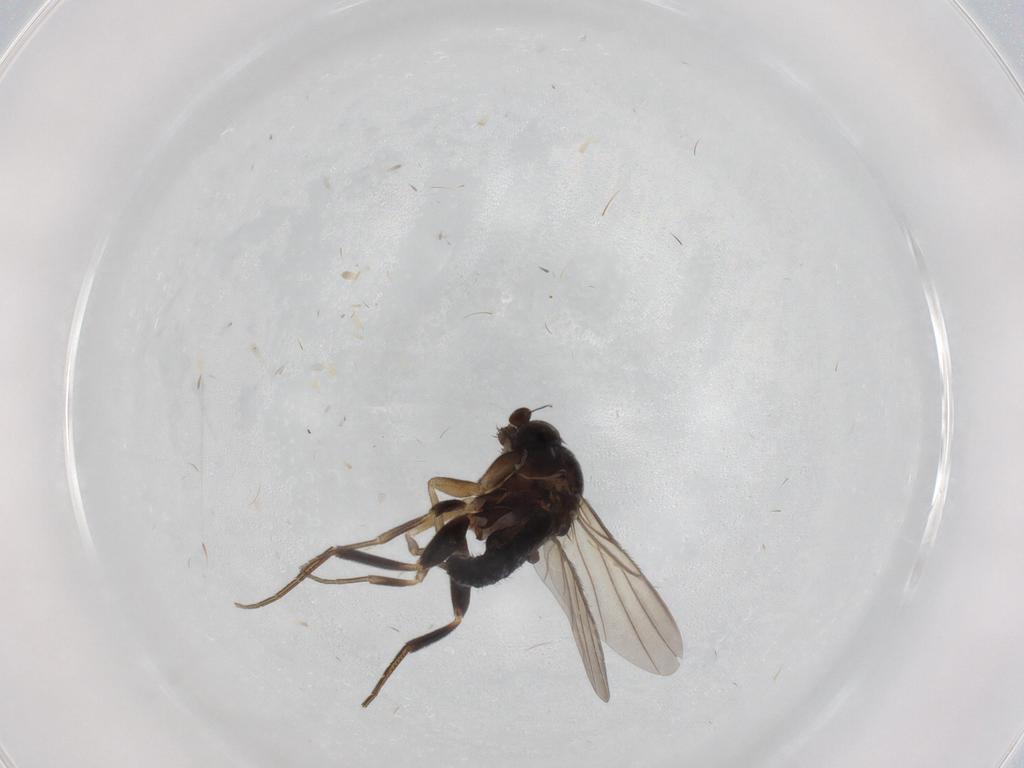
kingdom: Animalia
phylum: Arthropoda
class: Insecta
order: Diptera
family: Phoridae
